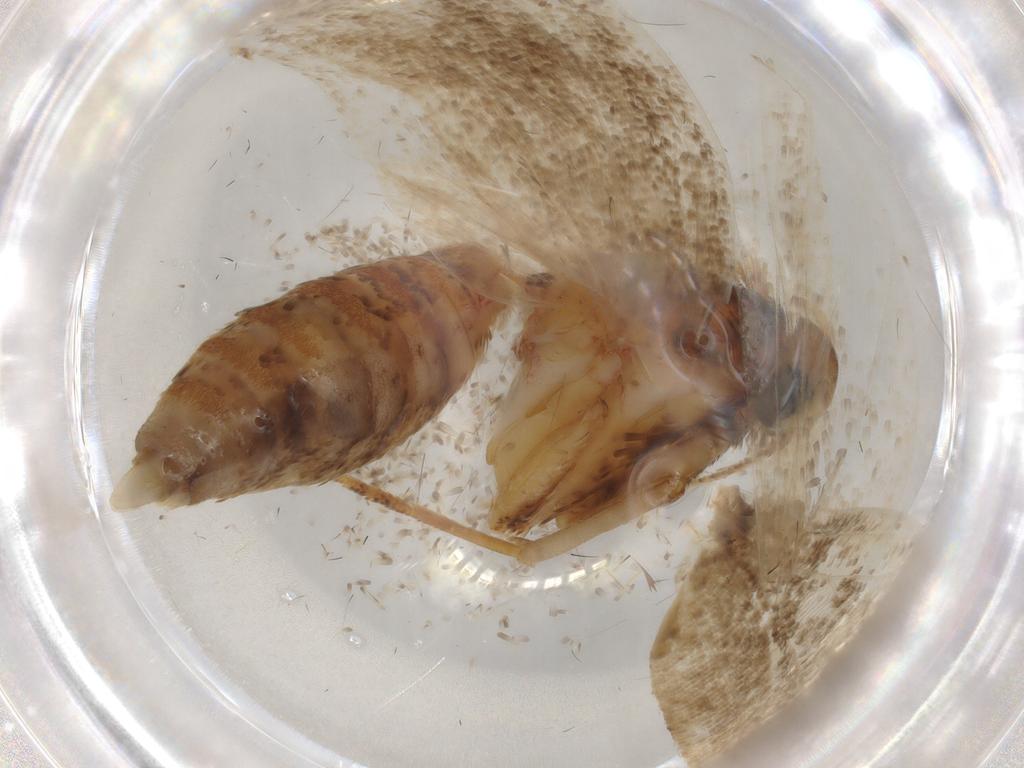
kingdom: Animalia
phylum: Arthropoda
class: Insecta
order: Lepidoptera
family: Oecophoridae
